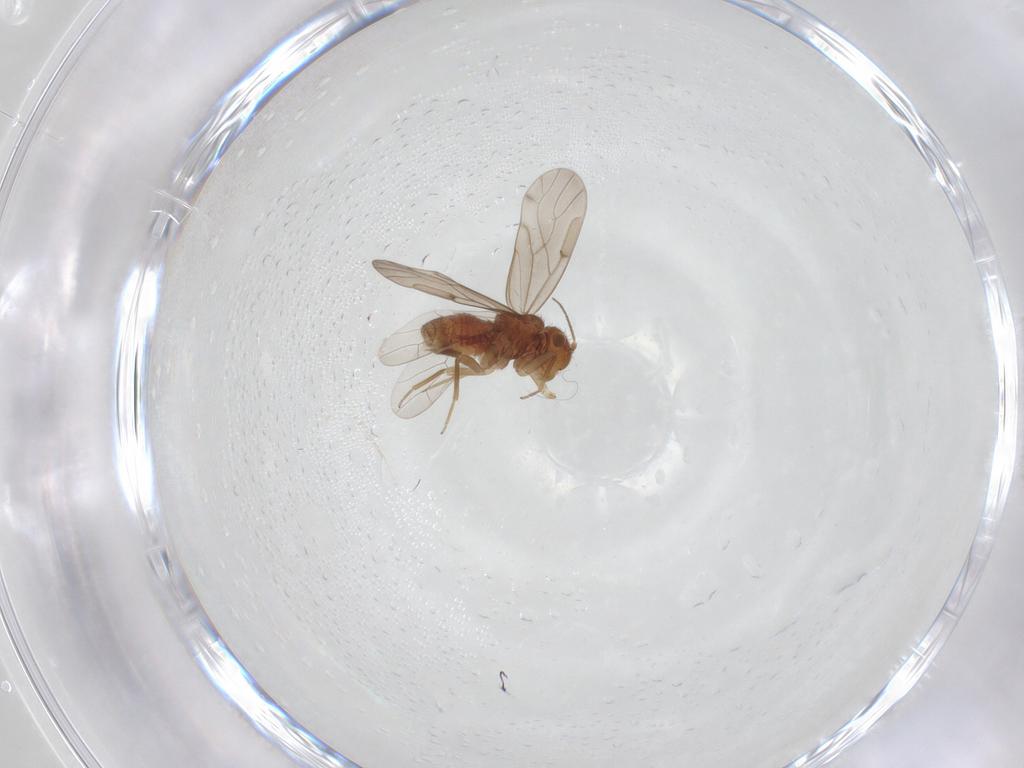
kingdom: Animalia
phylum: Arthropoda
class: Insecta
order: Psocodea
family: Ectopsocidae
